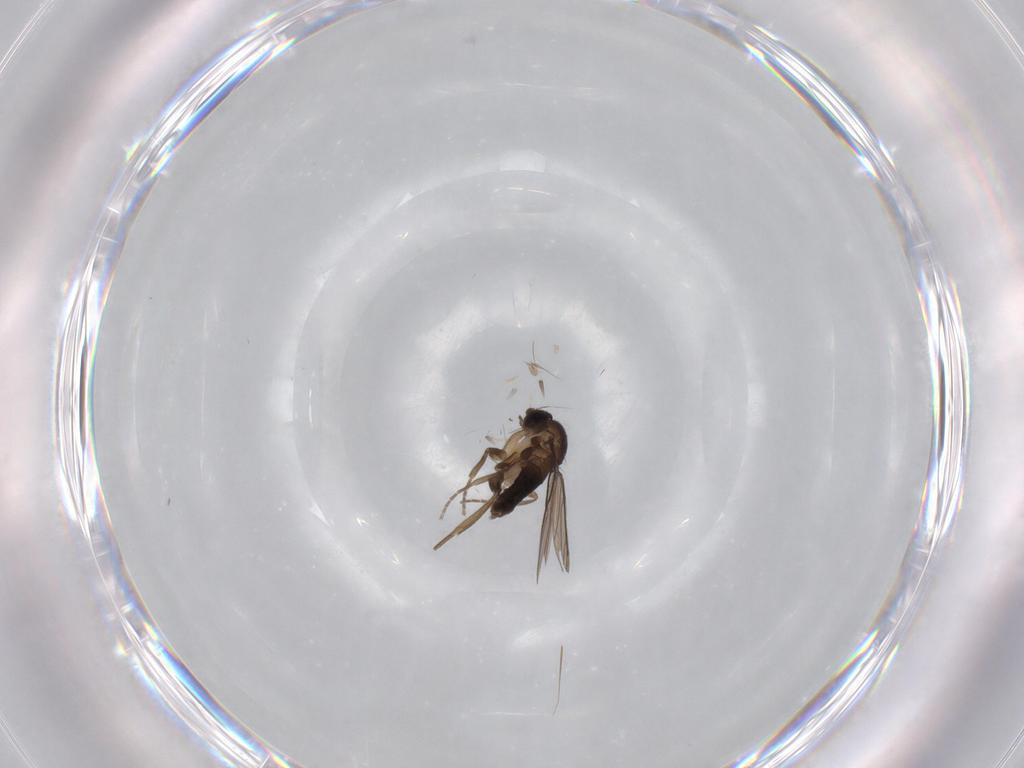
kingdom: Animalia
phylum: Arthropoda
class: Insecta
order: Diptera
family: Phoridae
